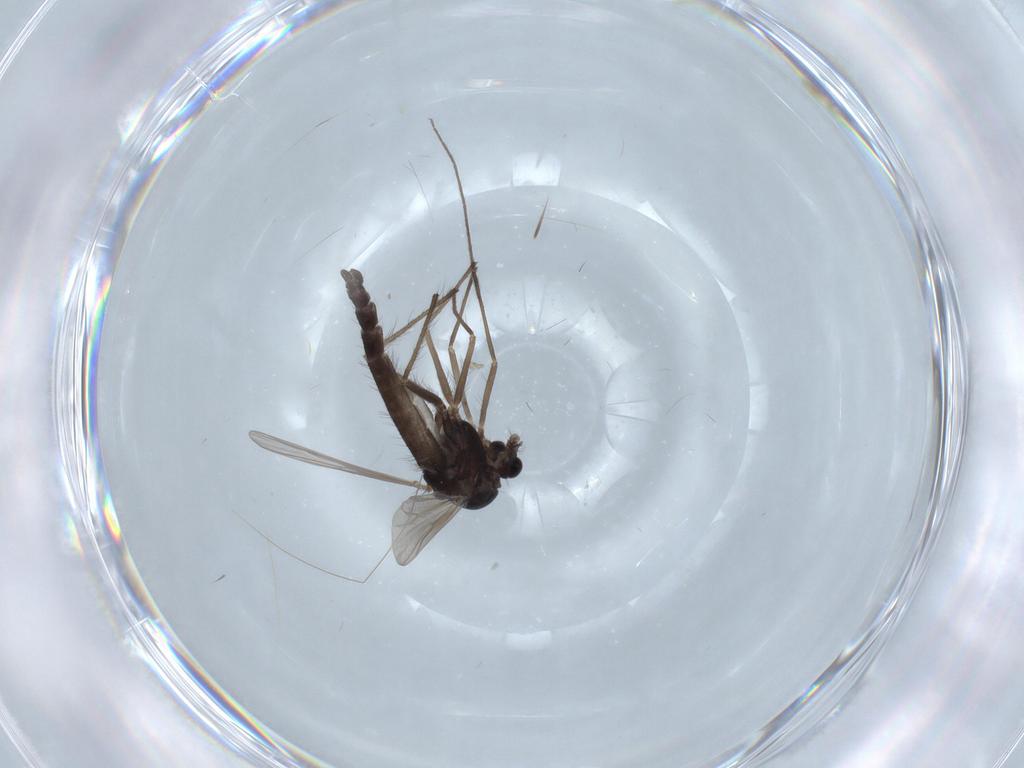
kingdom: Animalia
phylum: Arthropoda
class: Insecta
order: Diptera
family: Chironomidae
